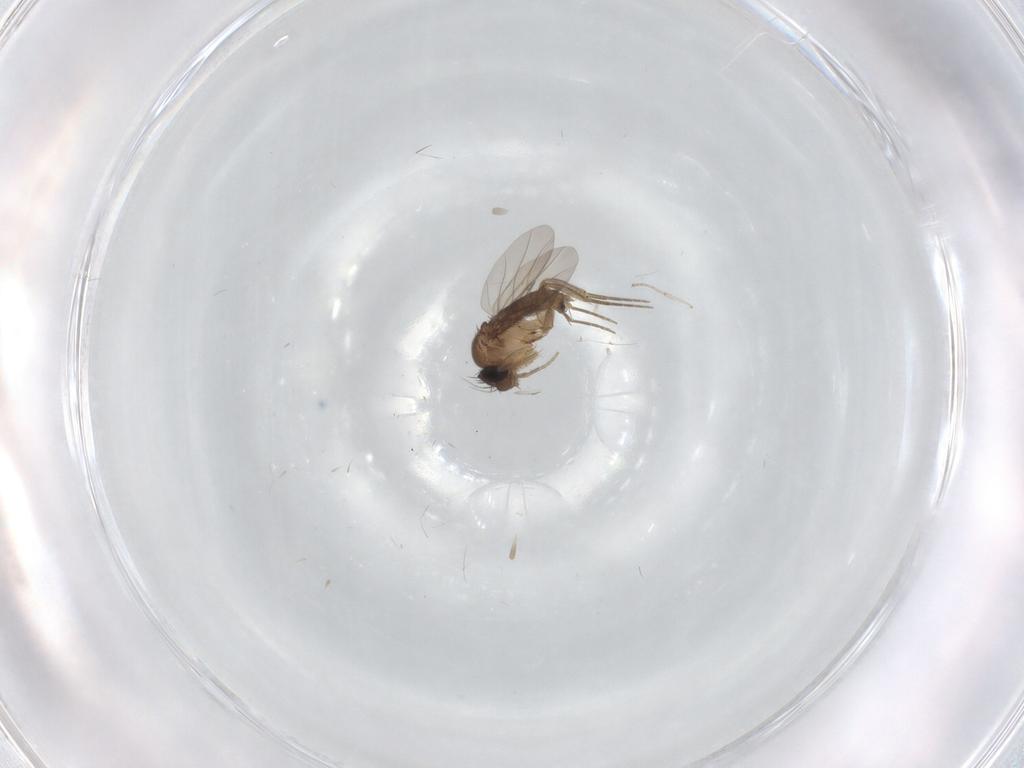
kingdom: Animalia
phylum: Arthropoda
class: Insecta
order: Diptera
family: Phoridae
